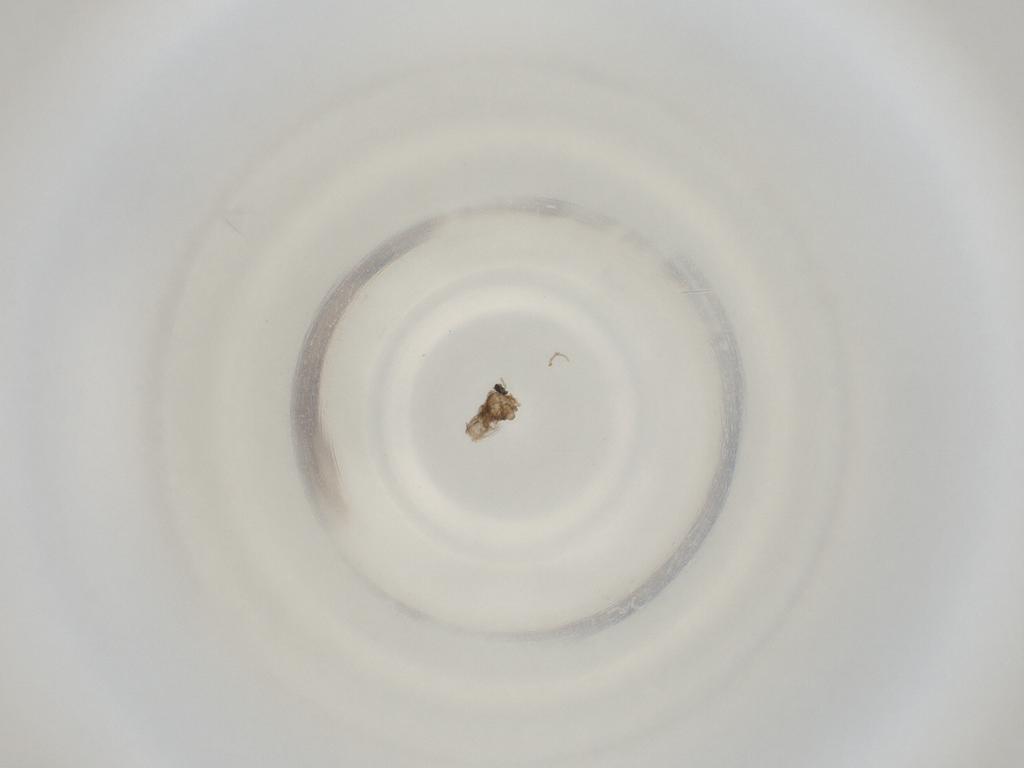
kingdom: Animalia
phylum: Arthropoda
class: Insecta
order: Diptera
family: Cecidomyiidae
